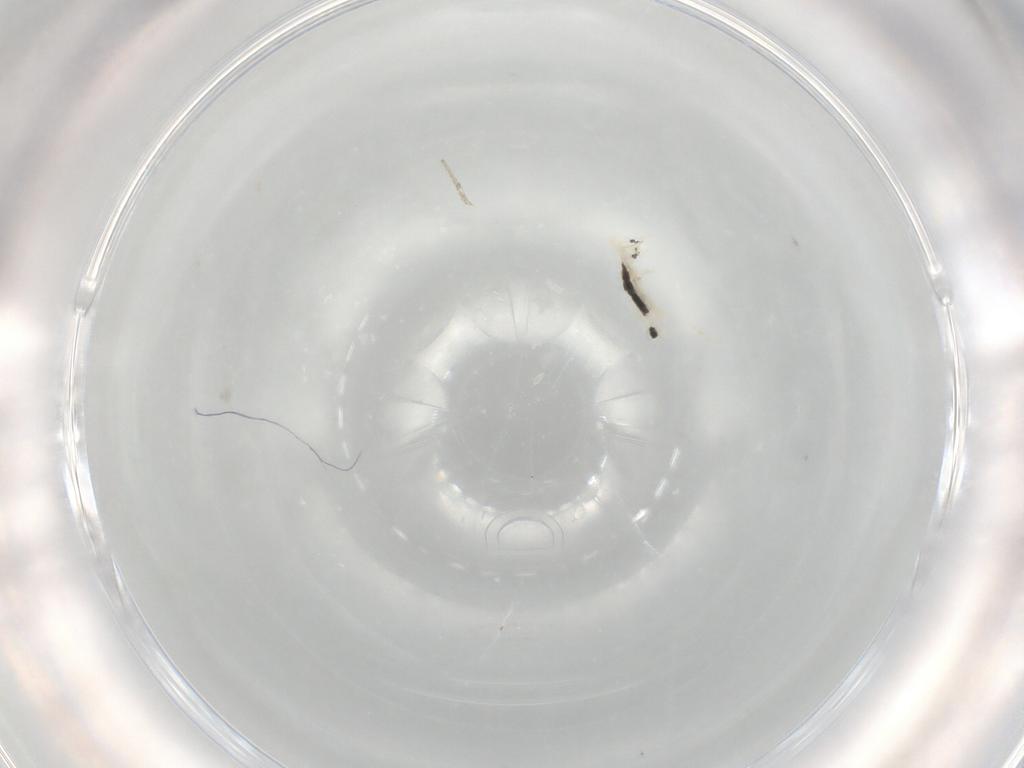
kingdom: Animalia
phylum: Arthropoda
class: Collembola
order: Entomobryomorpha
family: Entomobryidae
